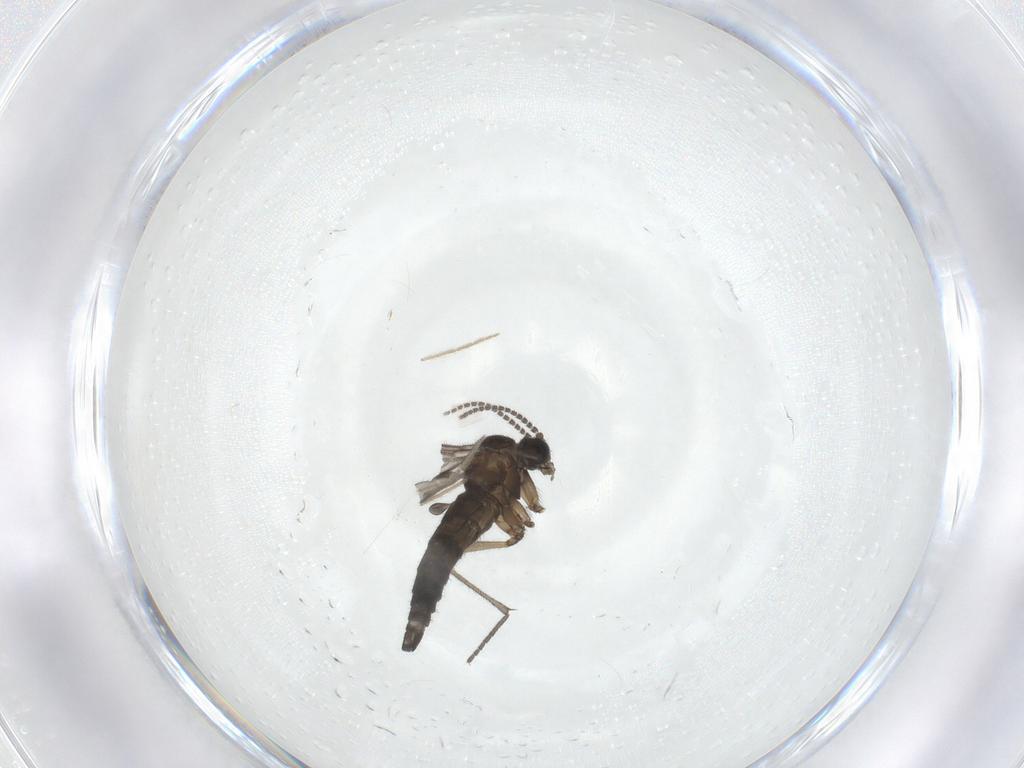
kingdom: Animalia
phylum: Arthropoda
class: Insecta
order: Diptera
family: Sciaridae
